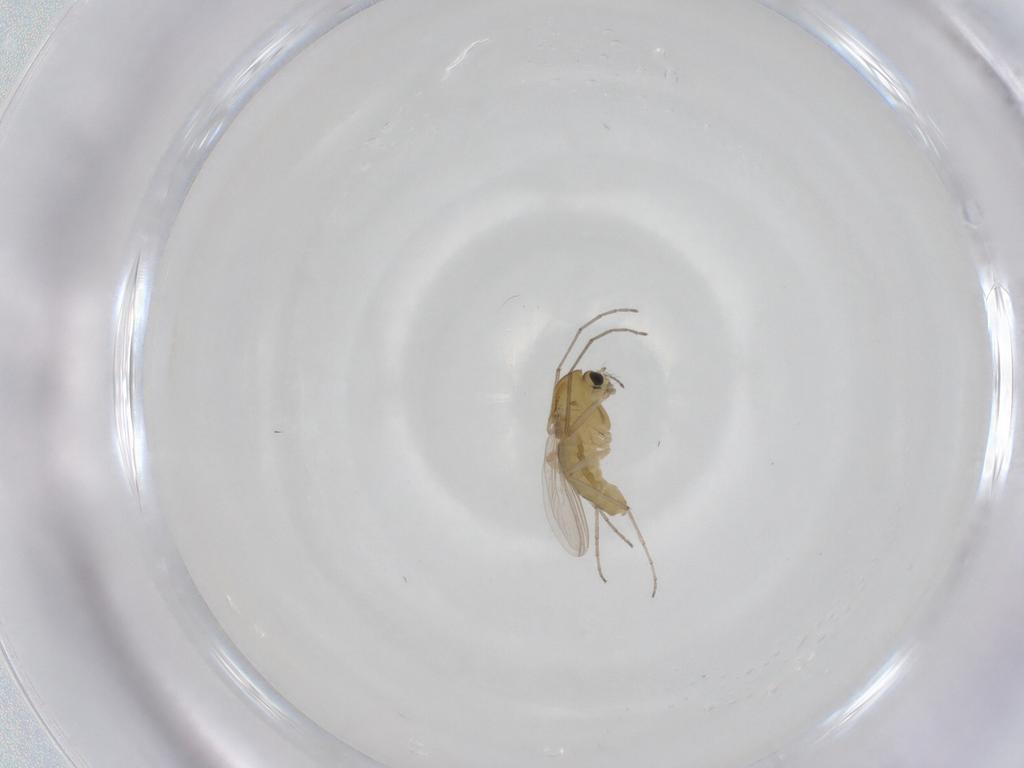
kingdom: Animalia
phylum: Arthropoda
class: Insecta
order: Diptera
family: Chironomidae
